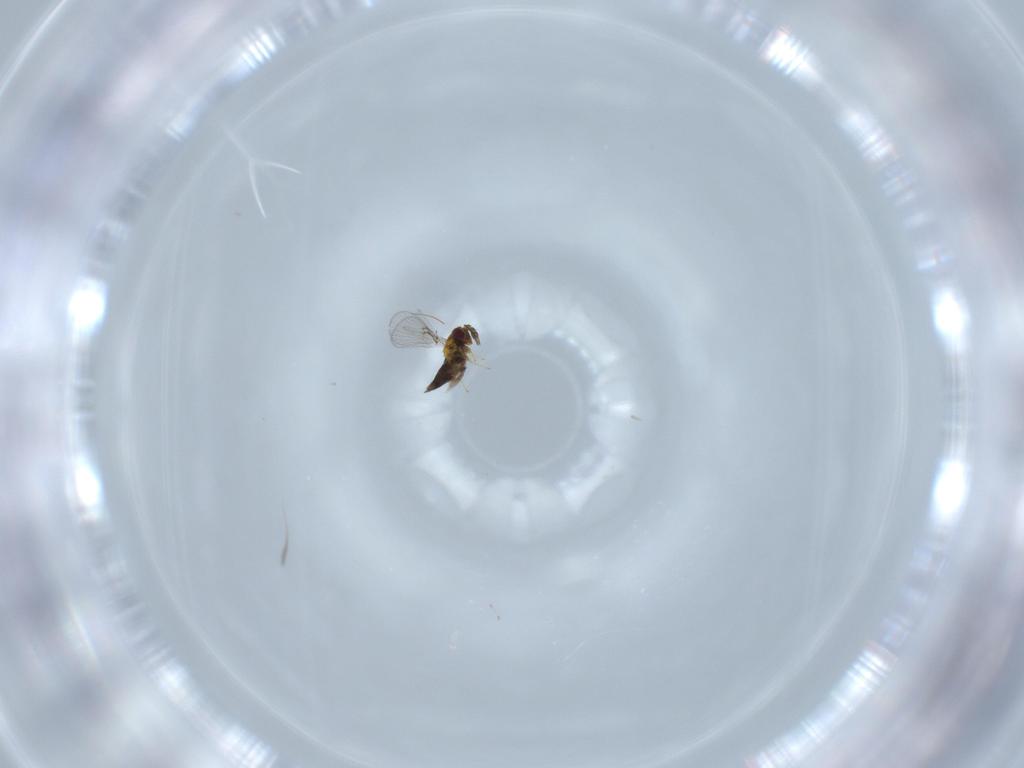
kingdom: Animalia
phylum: Arthropoda
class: Insecta
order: Hymenoptera
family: Trichogrammatidae
